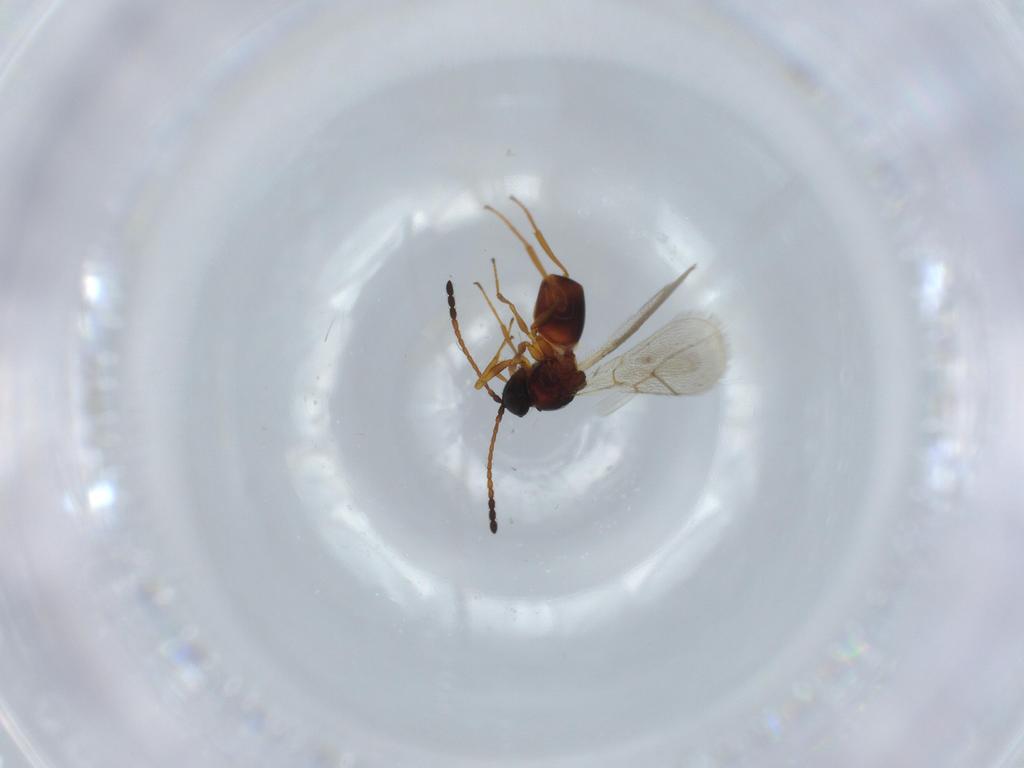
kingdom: Animalia
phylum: Arthropoda
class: Insecta
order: Hymenoptera
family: Figitidae
